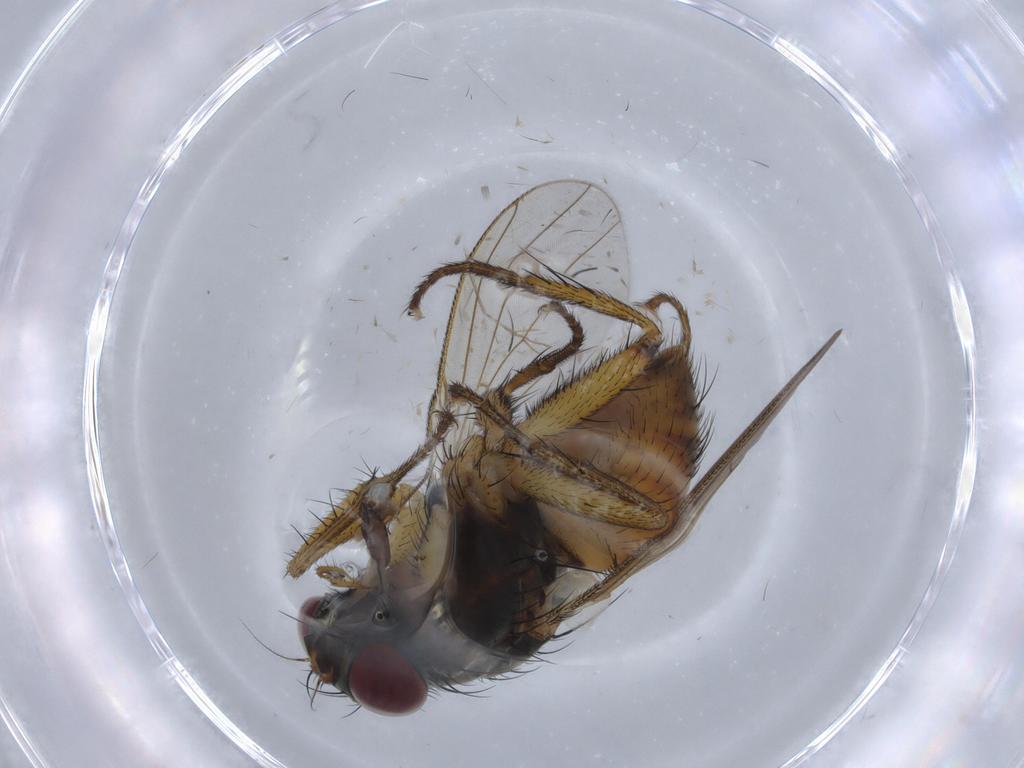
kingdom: Animalia
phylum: Arthropoda
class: Insecta
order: Diptera
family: Muscidae
